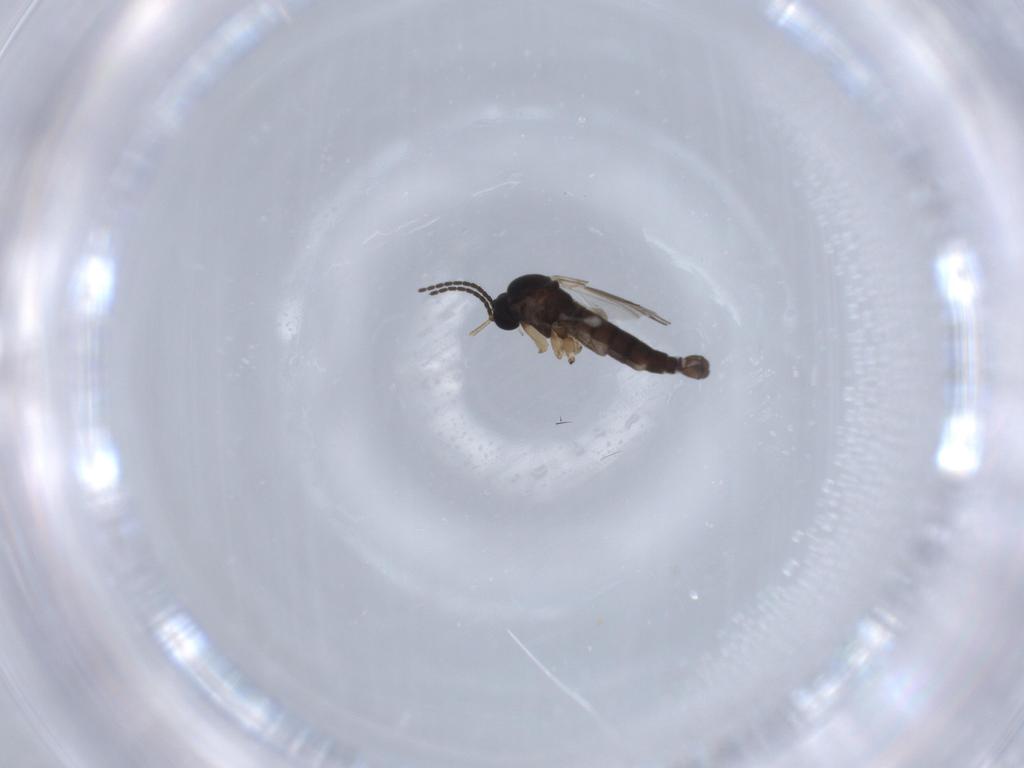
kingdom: Animalia
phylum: Arthropoda
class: Insecta
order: Diptera
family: Sciaridae
